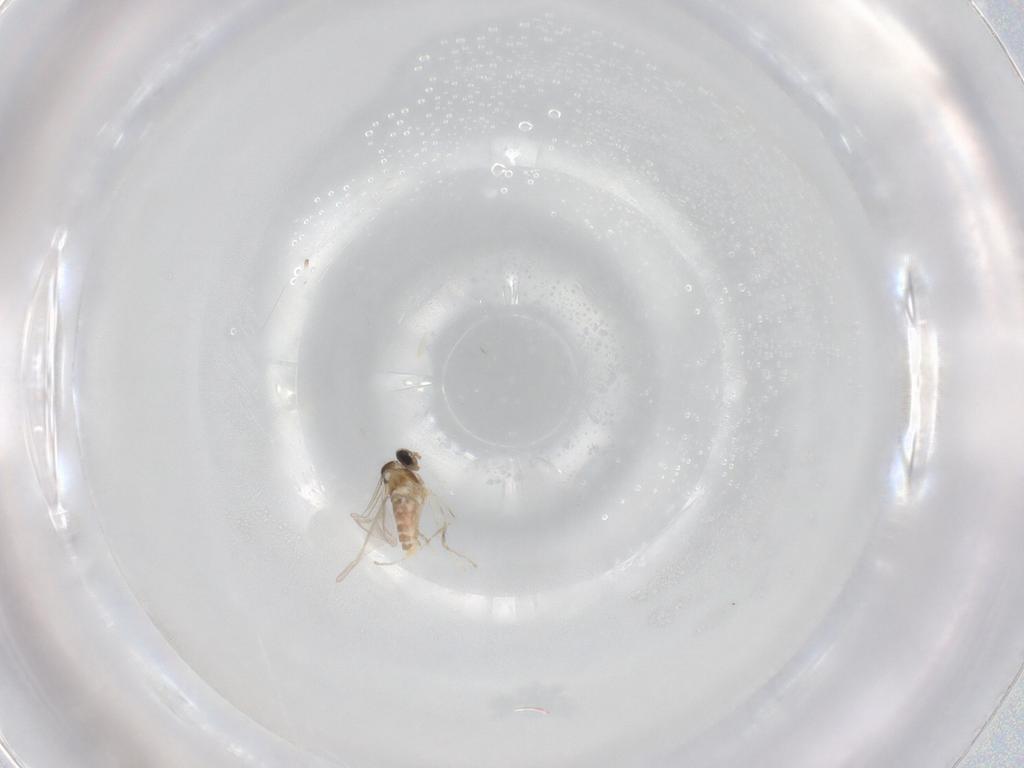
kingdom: Animalia
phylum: Arthropoda
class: Insecta
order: Diptera
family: Cecidomyiidae
